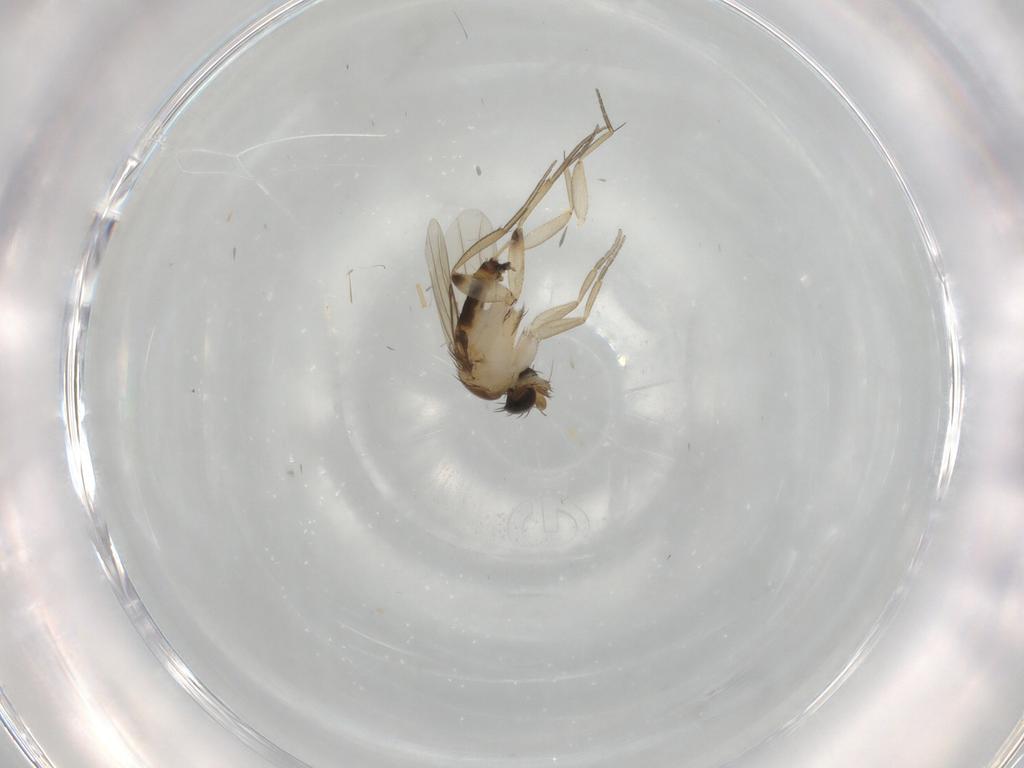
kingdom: Animalia
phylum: Arthropoda
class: Insecta
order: Diptera
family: Phoridae
